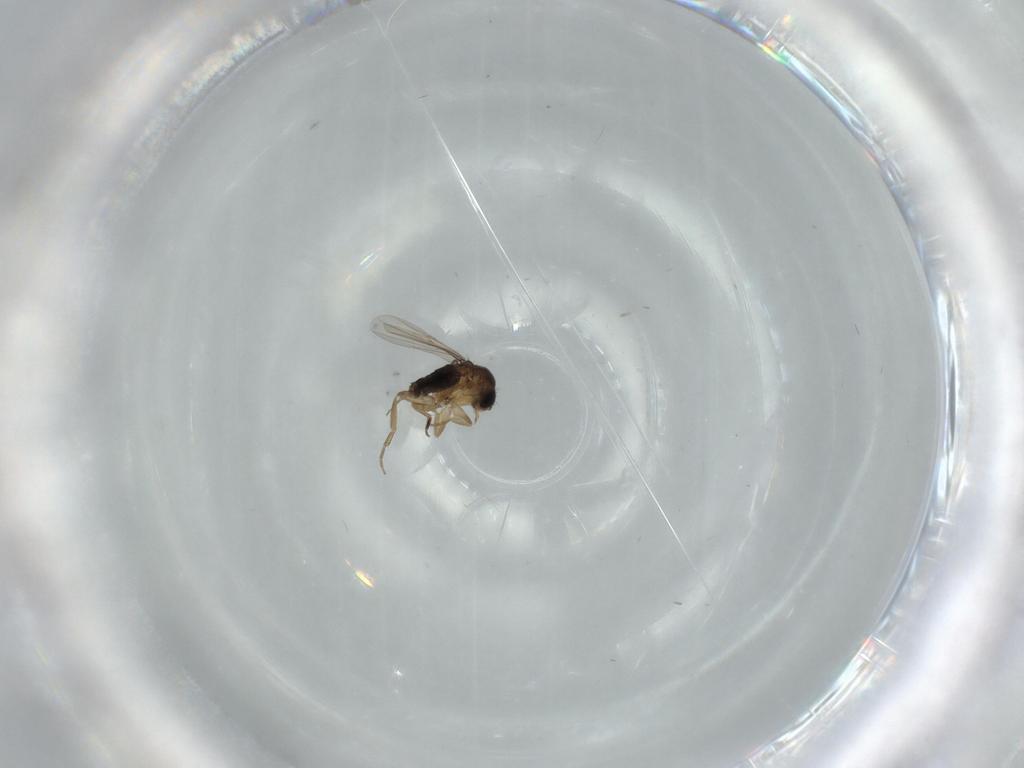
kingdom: Animalia
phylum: Arthropoda
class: Insecta
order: Diptera
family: Phoridae
